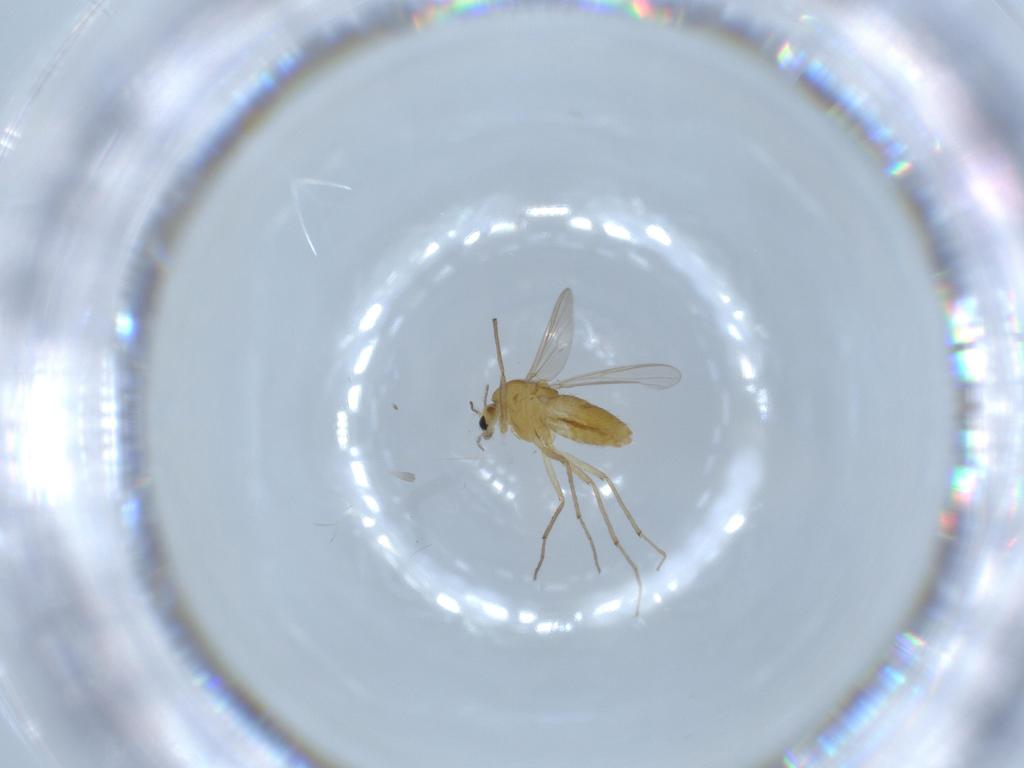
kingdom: Animalia
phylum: Arthropoda
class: Insecta
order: Diptera
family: Chironomidae
